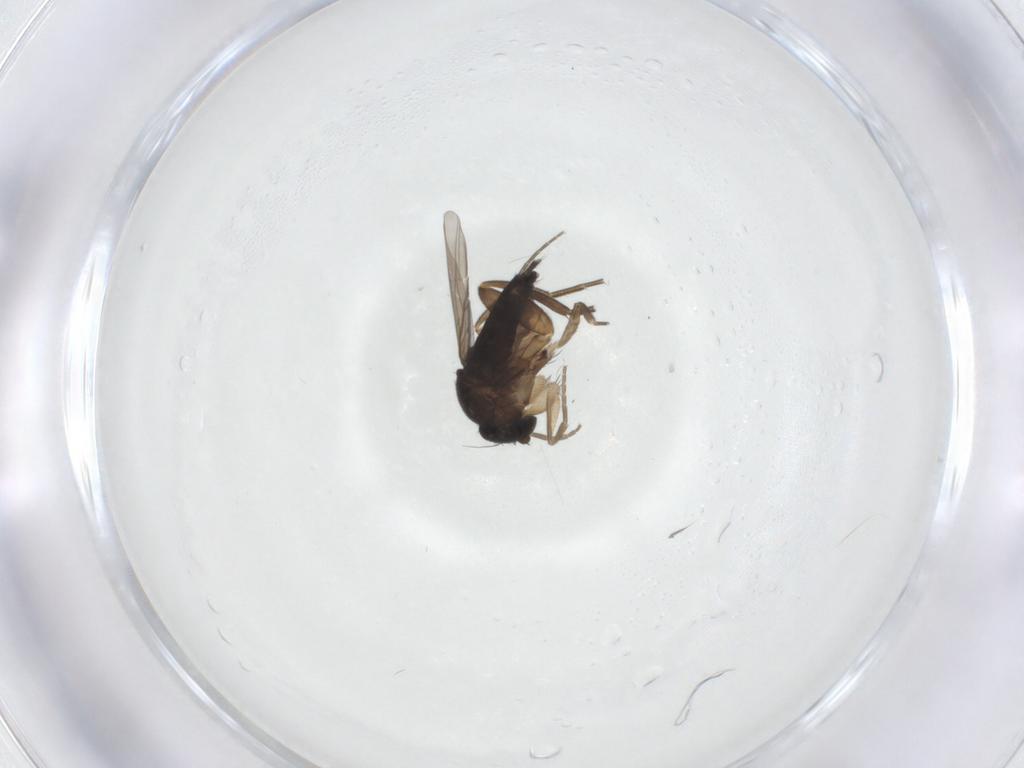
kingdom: Animalia
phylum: Arthropoda
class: Insecta
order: Diptera
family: Phoridae
